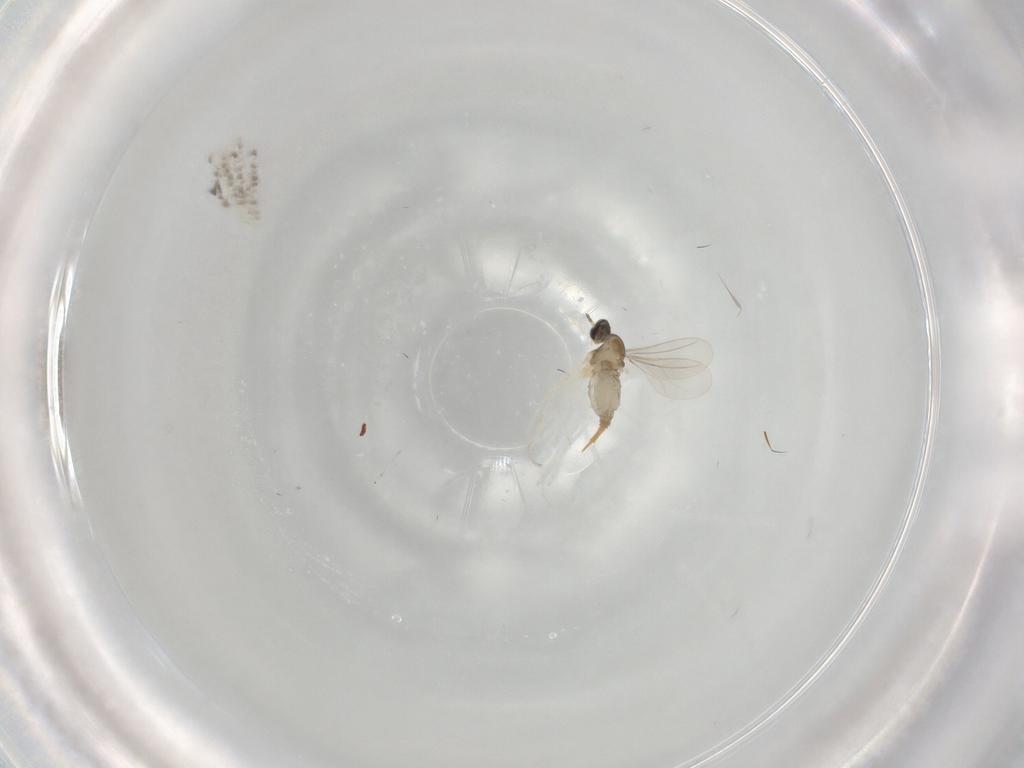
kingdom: Animalia
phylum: Arthropoda
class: Insecta
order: Diptera
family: Cecidomyiidae
